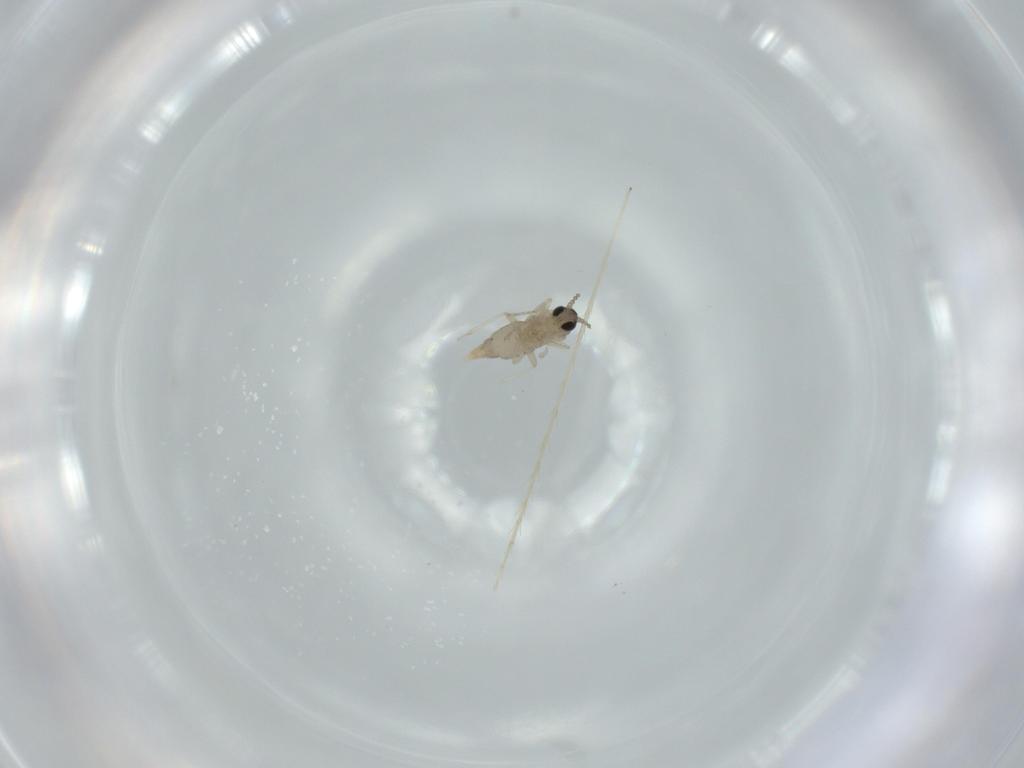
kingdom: Animalia
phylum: Arthropoda
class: Insecta
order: Diptera
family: Cecidomyiidae
